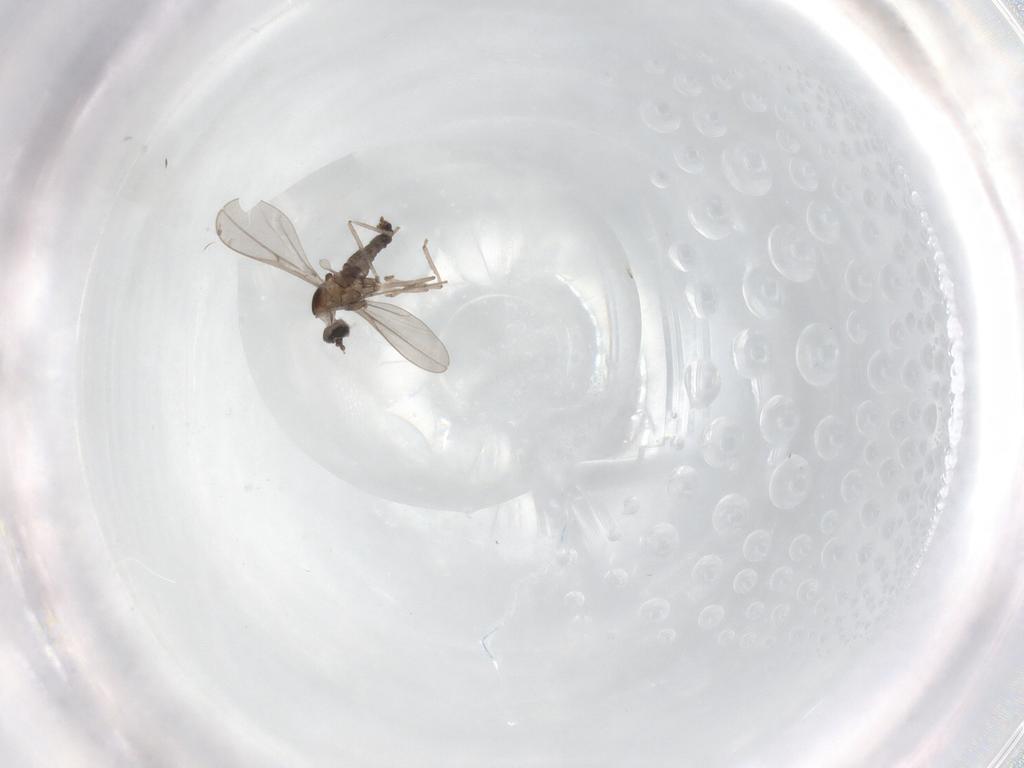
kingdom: Animalia
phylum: Arthropoda
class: Insecta
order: Diptera
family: Cecidomyiidae
